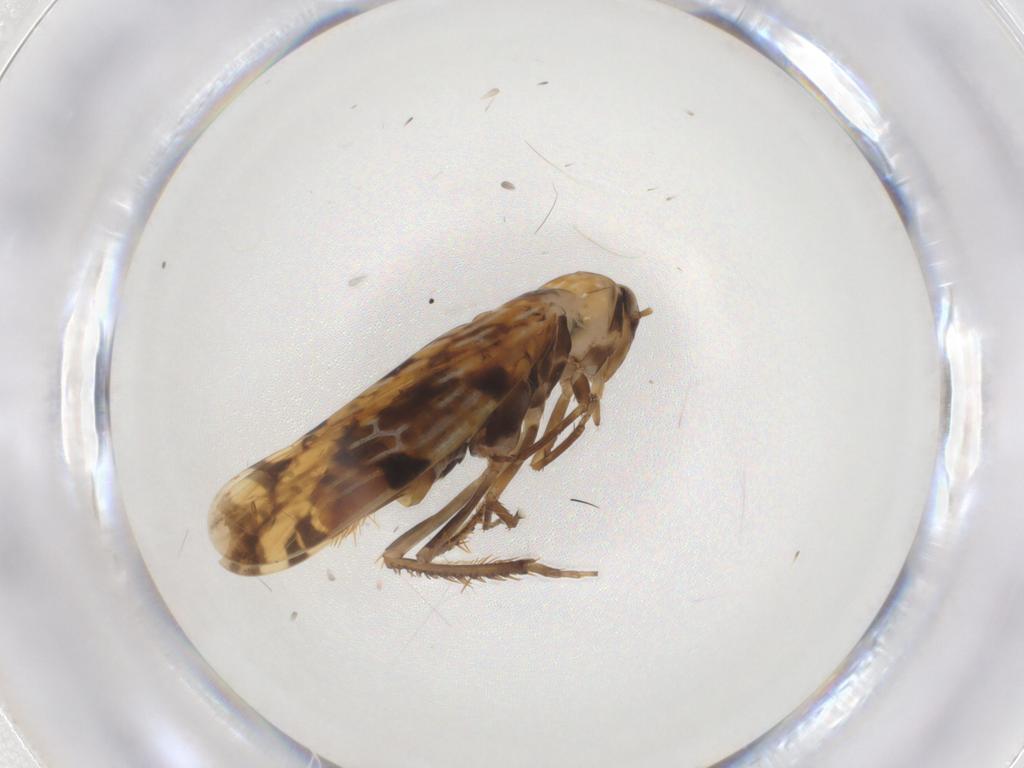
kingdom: Animalia
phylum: Arthropoda
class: Insecta
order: Hemiptera
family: Cicadellidae
